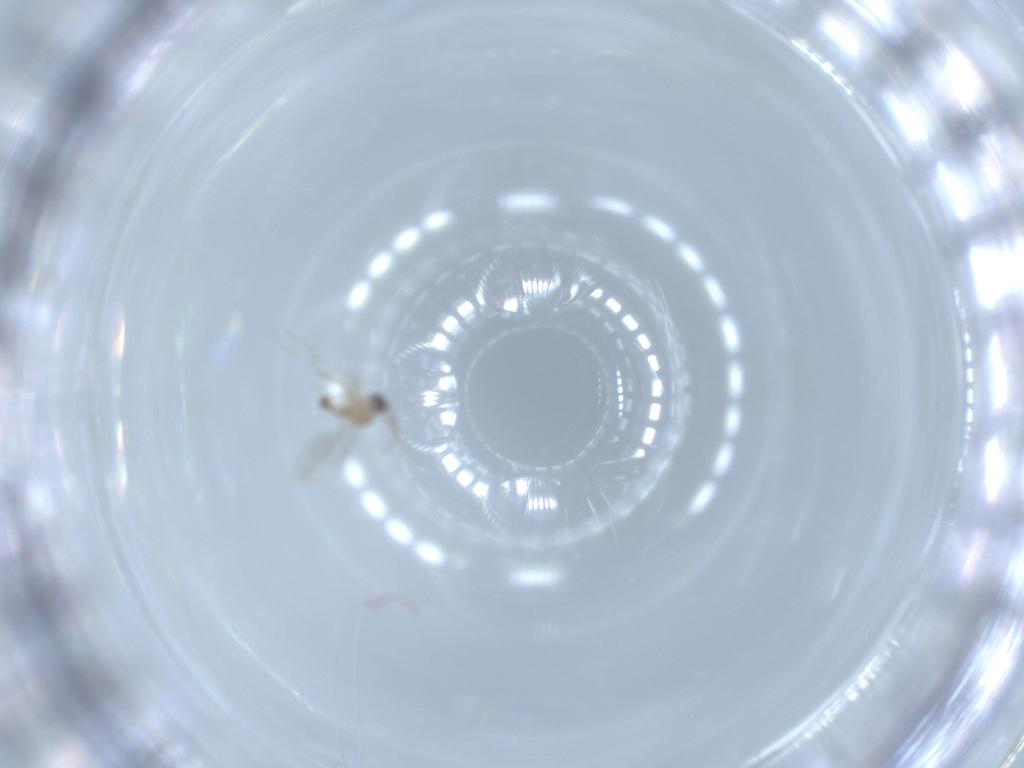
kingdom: Animalia
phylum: Arthropoda
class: Insecta
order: Diptera
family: Cecidomyiidae
